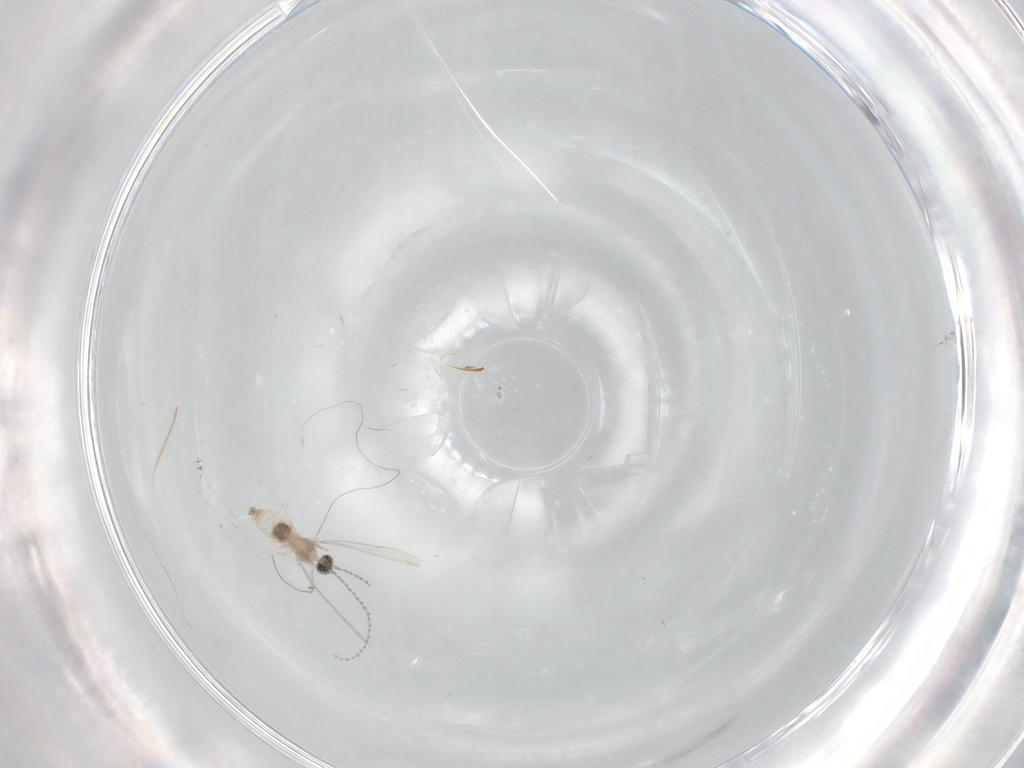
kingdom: Animalia
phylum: Arthropoda
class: Insecta
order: Diptera
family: Cecidomyiidae
